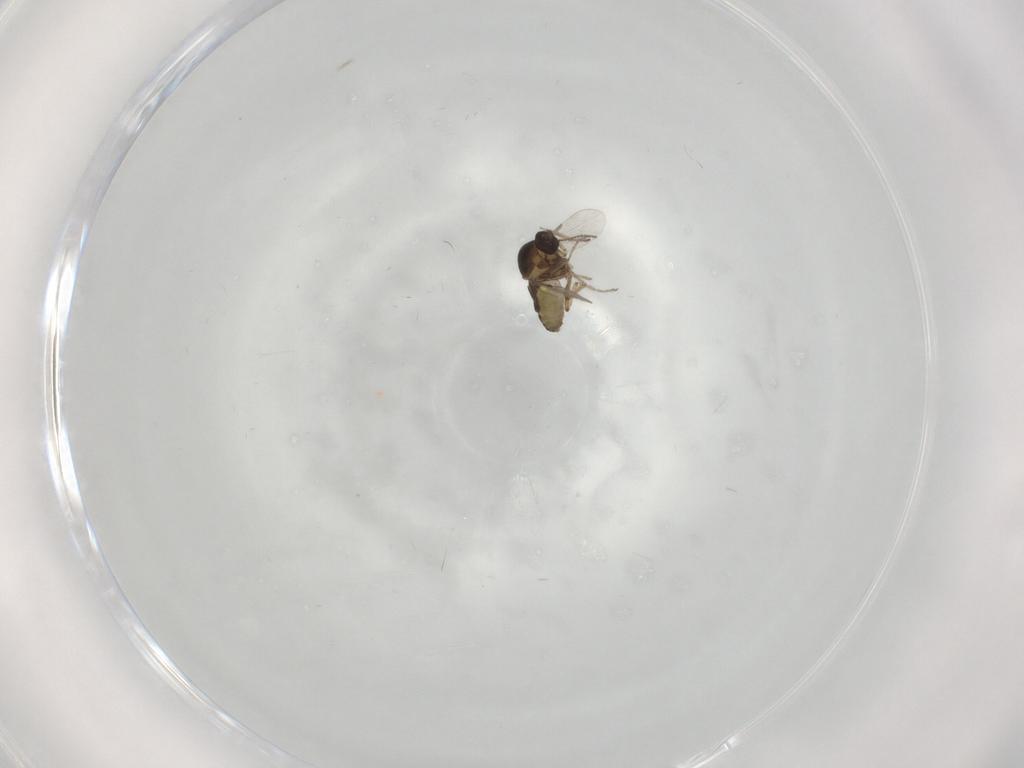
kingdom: Animalia
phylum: Arthropoda
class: Insecta
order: Diptera
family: Ceratopogonidae
